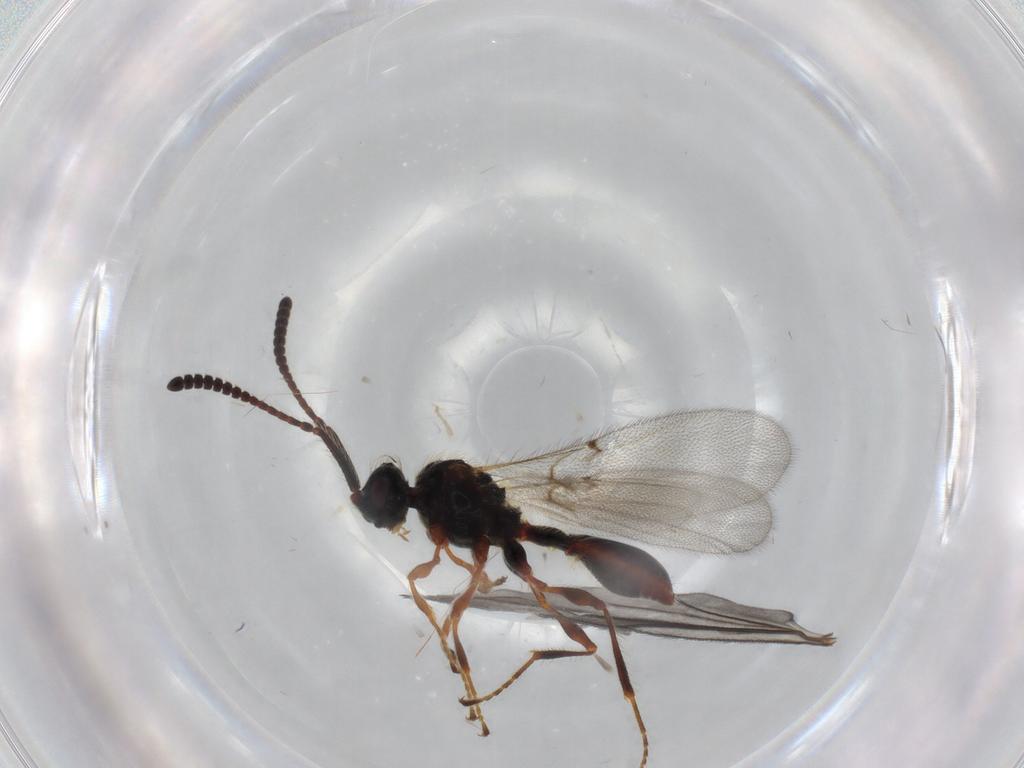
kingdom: Animalia
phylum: Arthropoda
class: Insecta
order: Hymenoptera
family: Diapriidae
